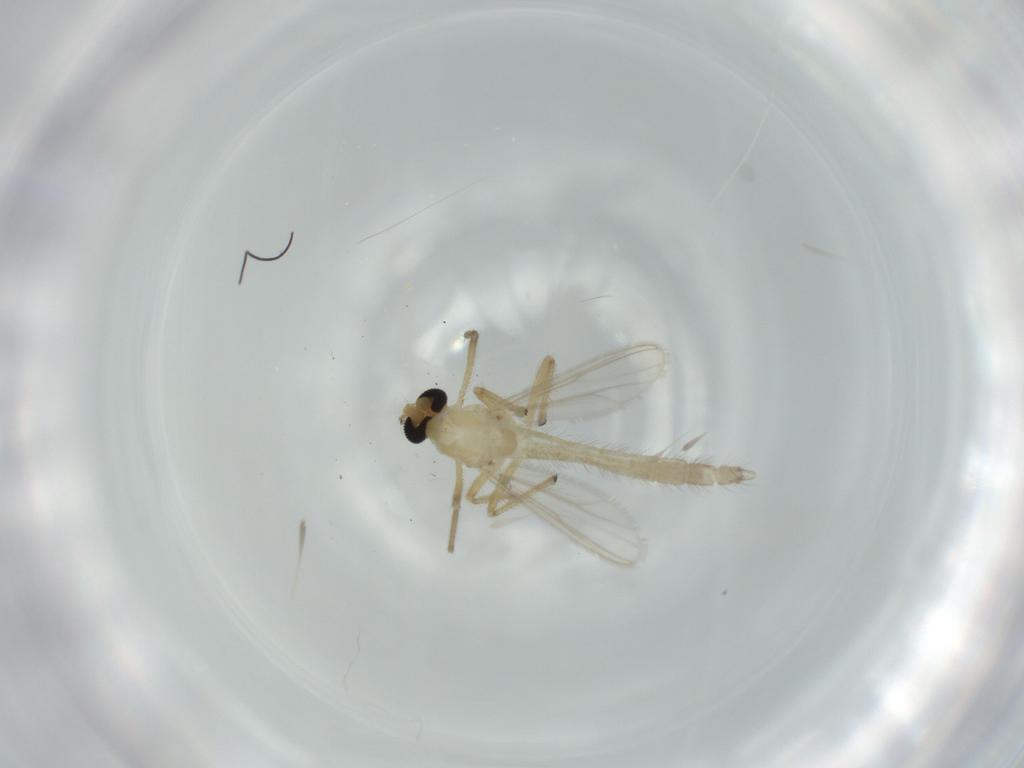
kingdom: Animalia
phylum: Arthropoda
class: Insecta
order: Diptera
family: Chironomidae
